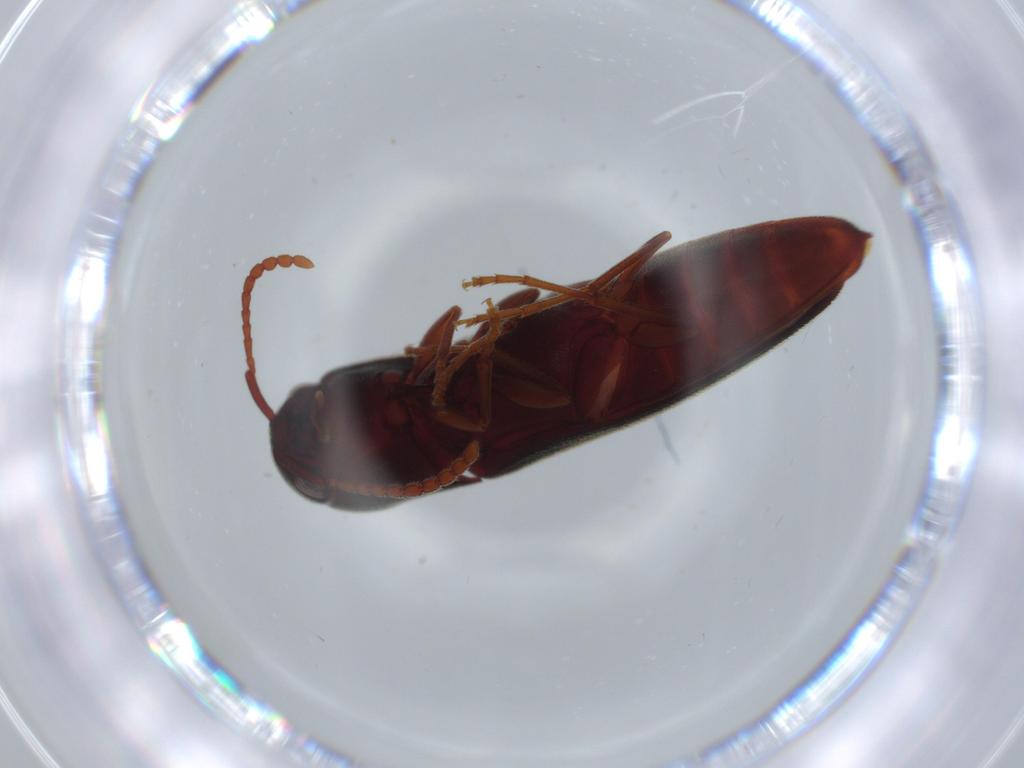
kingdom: Animalia
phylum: Arthropoda
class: Insecta
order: Coleoptera
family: Eucnemidae
